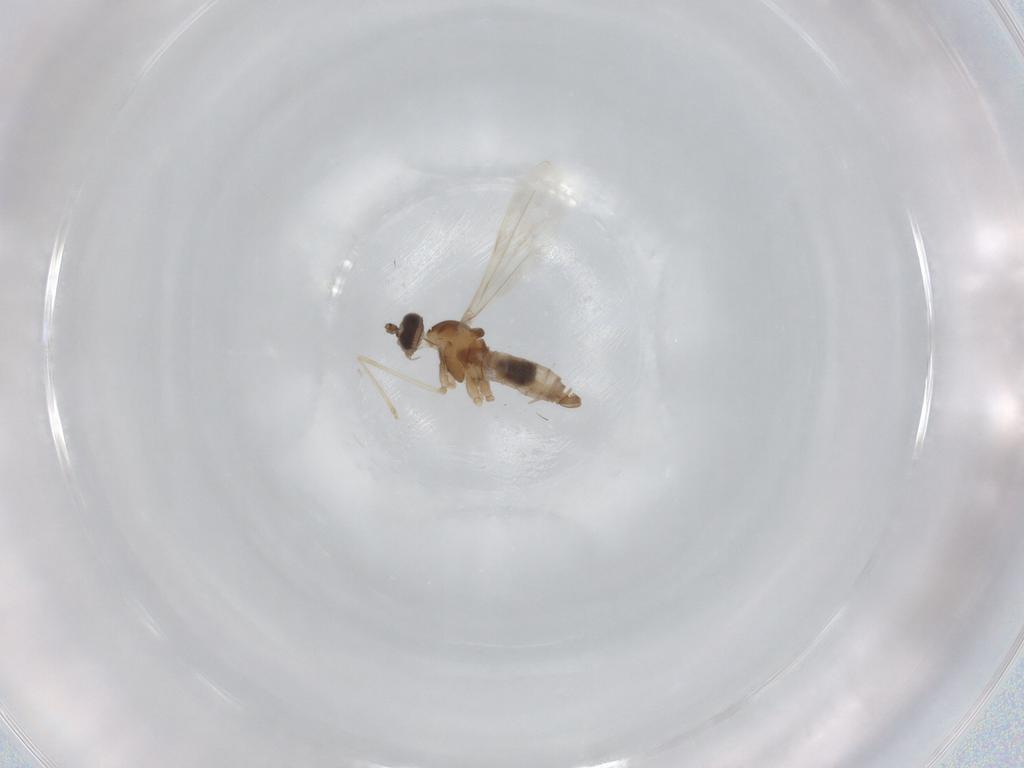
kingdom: Animalia
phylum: Arthropoda
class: Insecta
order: Diptera
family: Cecidomyiidae
